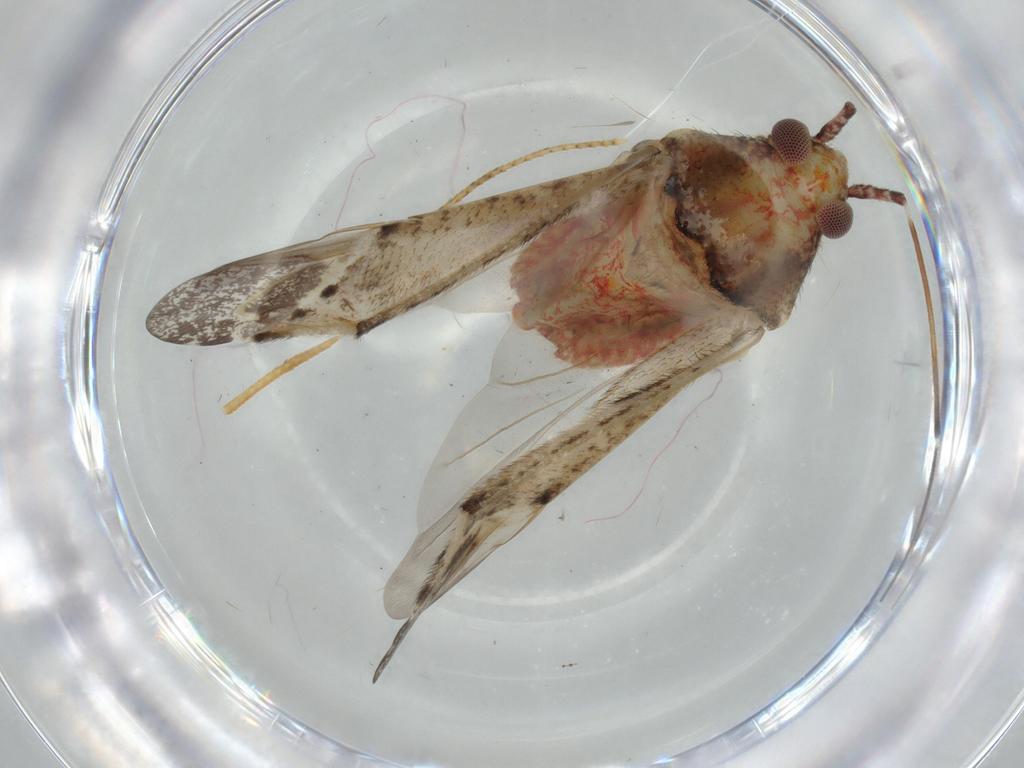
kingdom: Animalia
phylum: Arthropoda
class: Insecta
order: Hemiptera
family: Miridae
